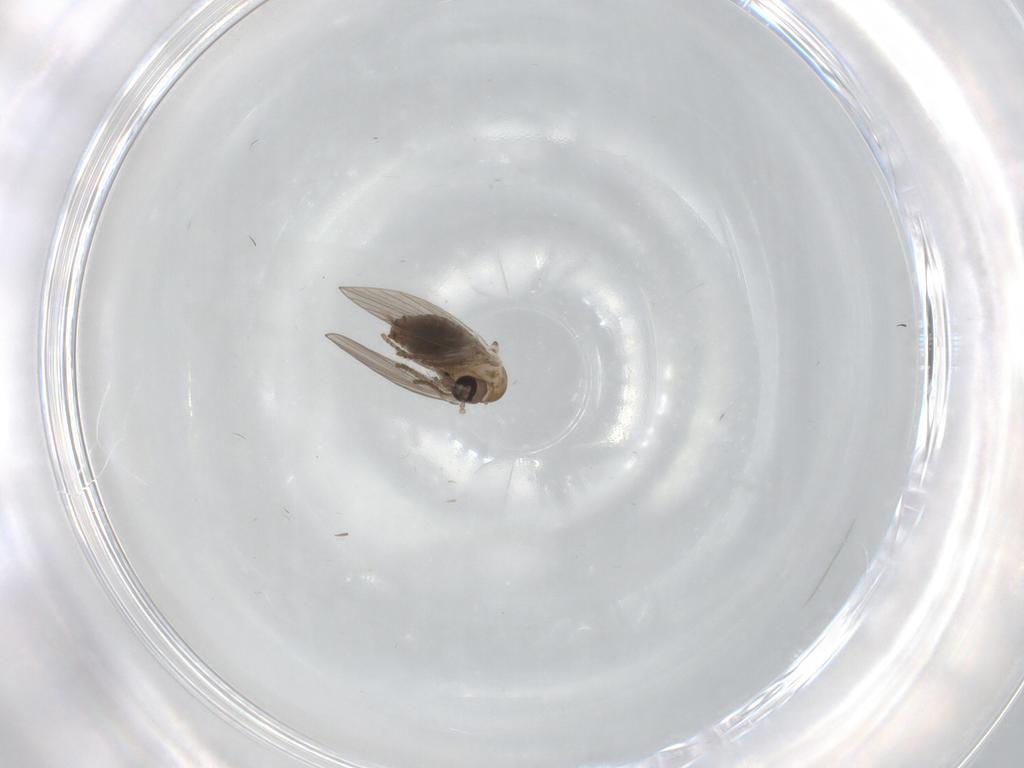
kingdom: Animalia
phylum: Arthropoda
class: Insecta
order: Diptera
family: Psychodidae
